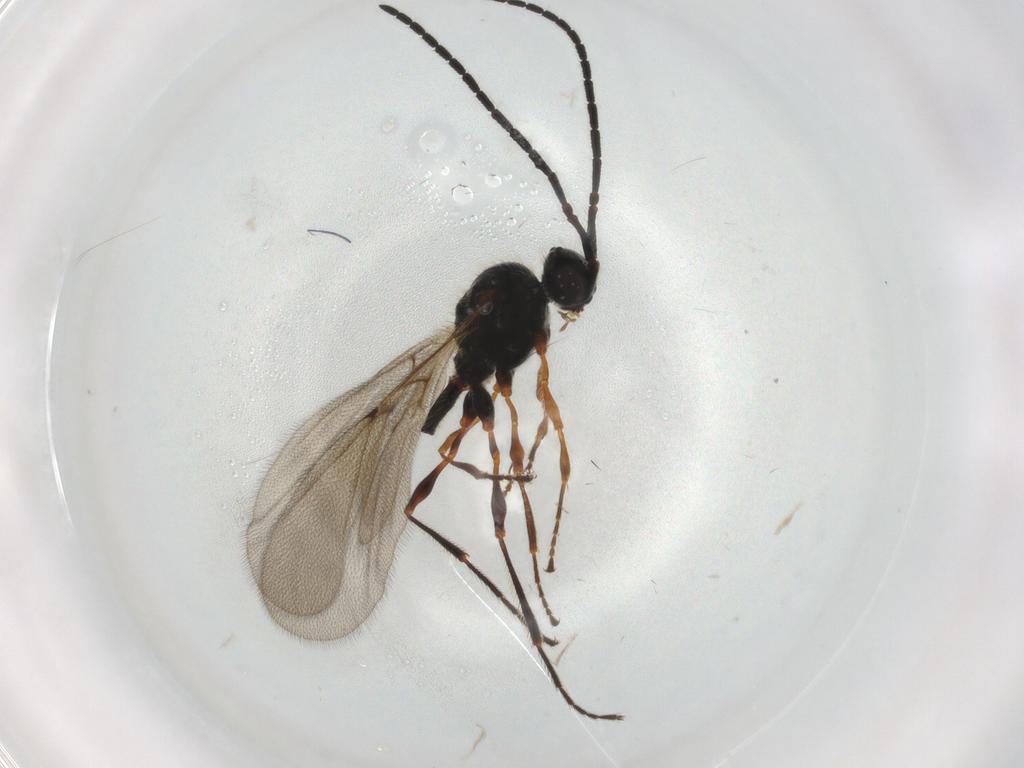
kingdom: Animalia
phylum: Arthropoda
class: Insecta
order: Hymenoptera
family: Diapriidae
